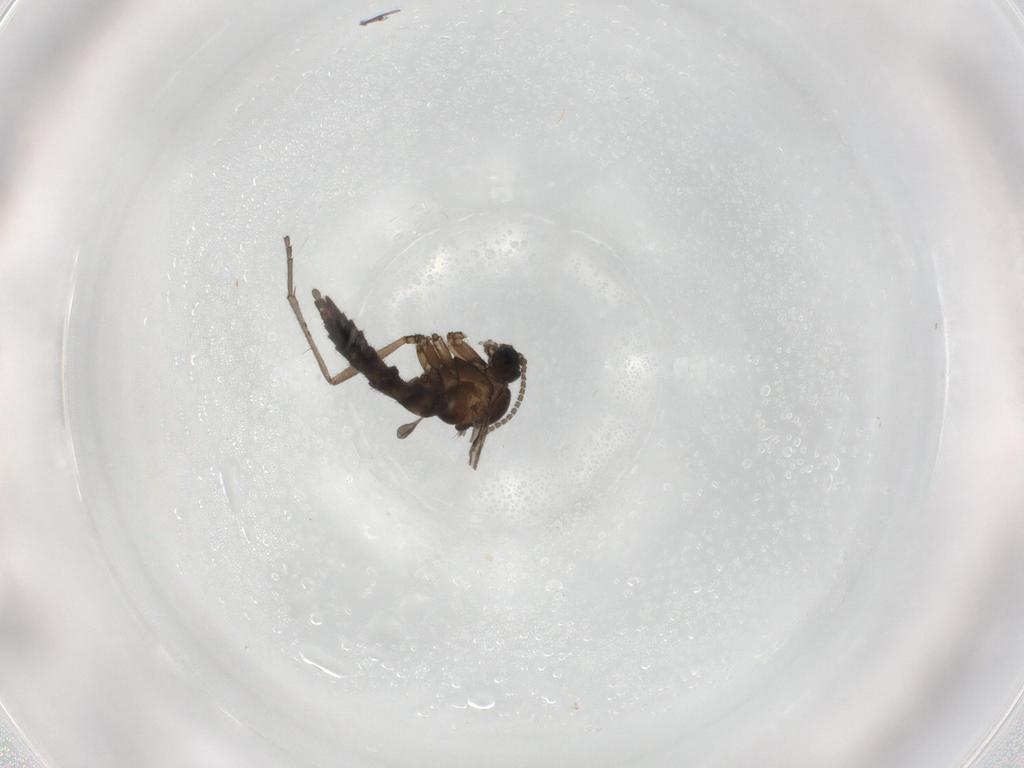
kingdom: Animalia
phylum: Arthropoda
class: Insecta
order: Diptera
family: Sciaridae
